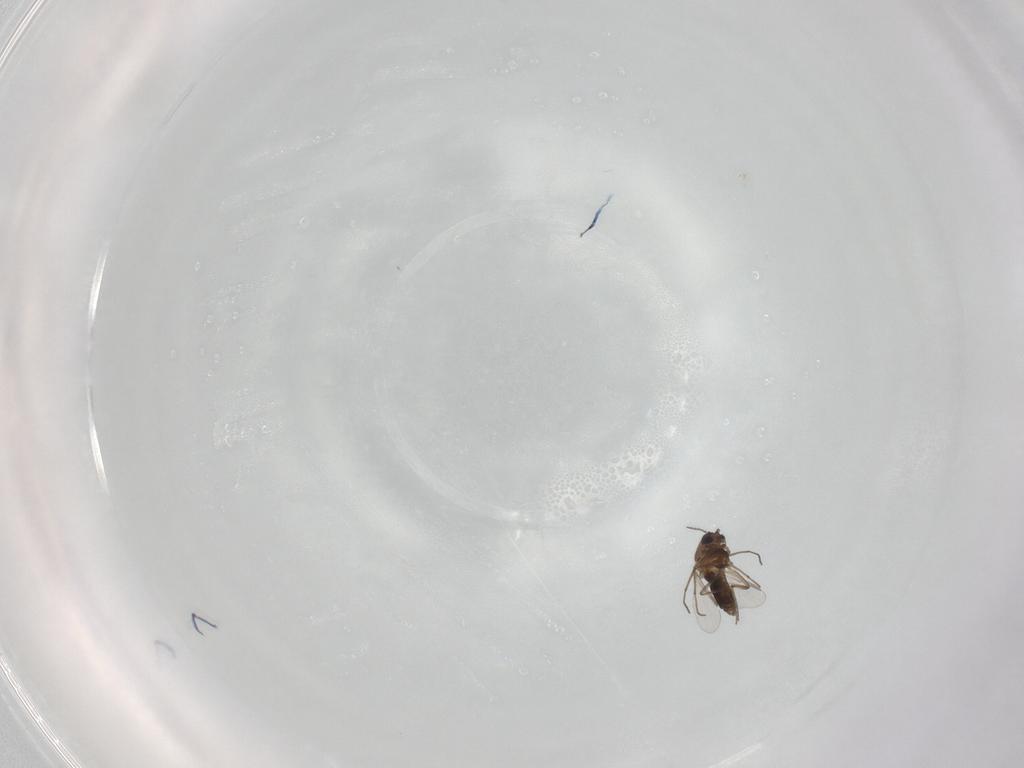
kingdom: Animalia
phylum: Arthropoda
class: Insecta
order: Diptera
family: Chironomidae
